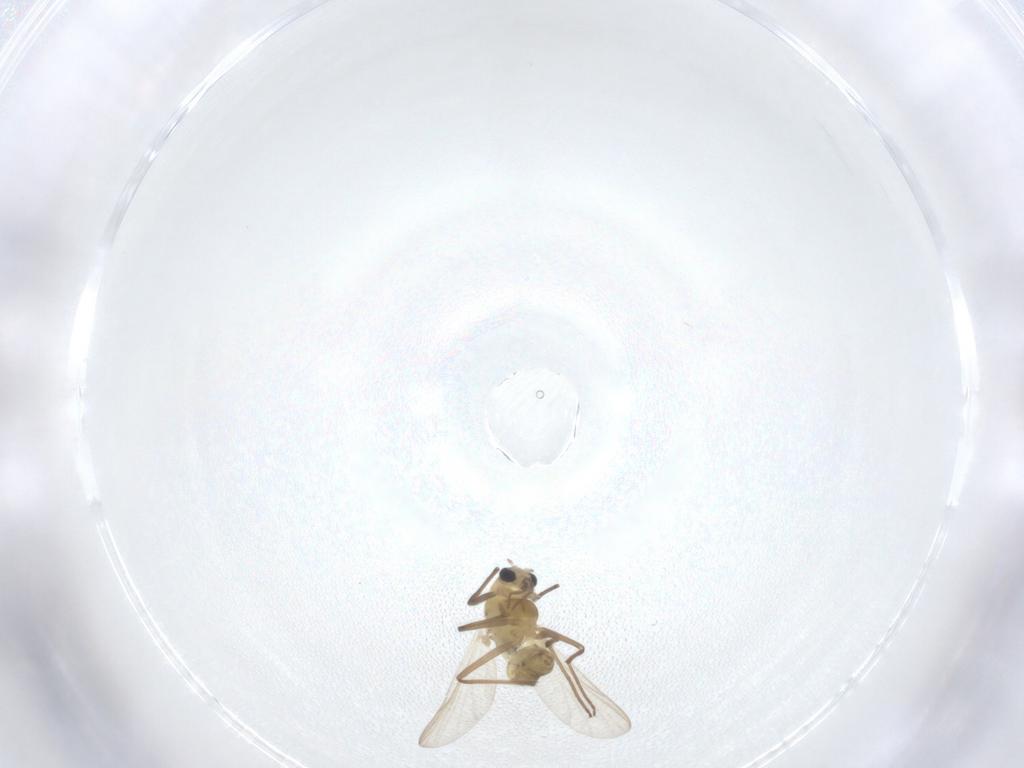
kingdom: Animalia
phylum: Arthropoda
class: Insecta
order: Diptera
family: Chironomidae
